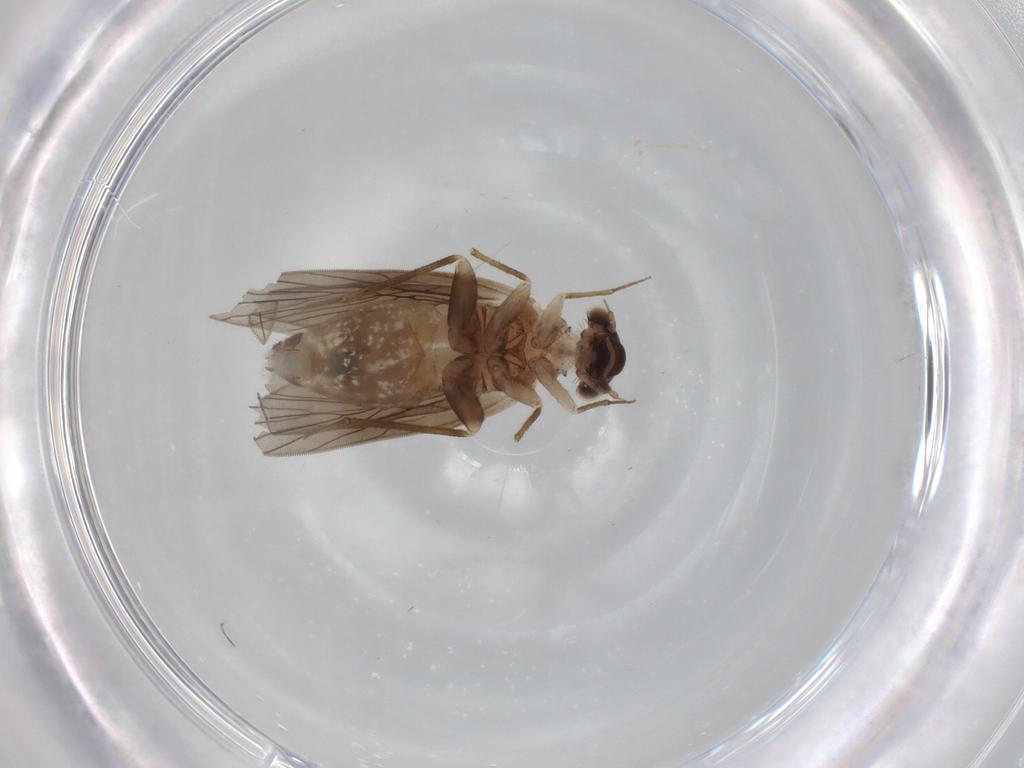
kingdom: Animalia
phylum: Arthropoda
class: Insecta
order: Psocodea
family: Lepidopsocidae
